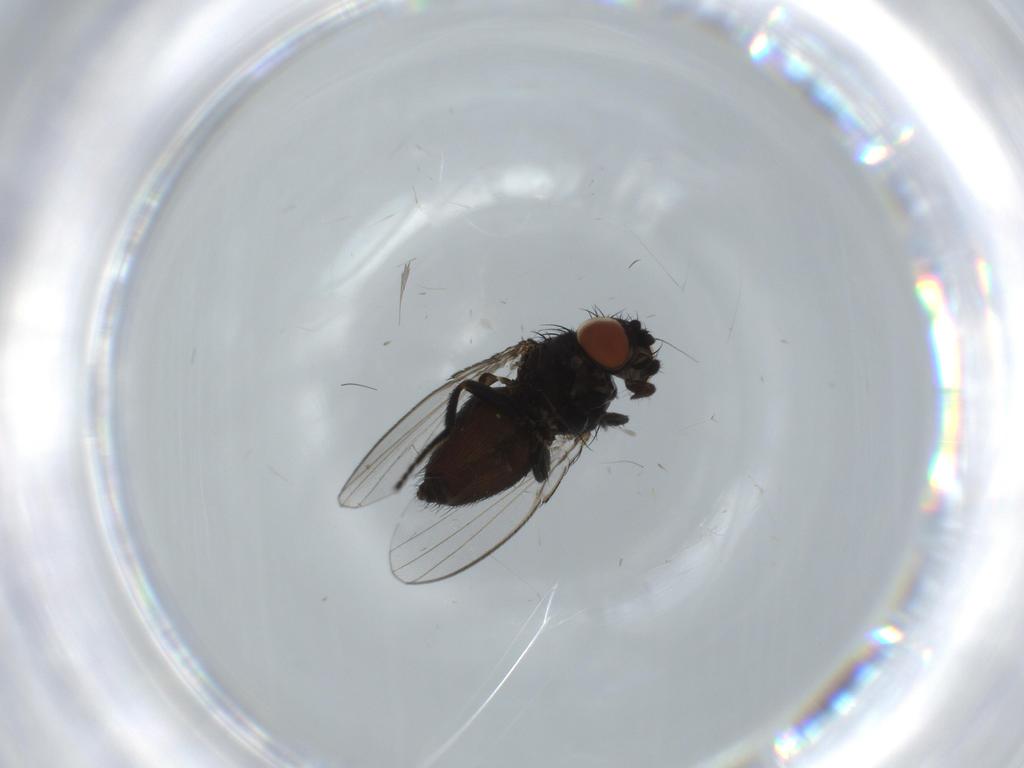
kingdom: Animalia
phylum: Arthropoda
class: Insecta
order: Diptera
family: Milichiidae
